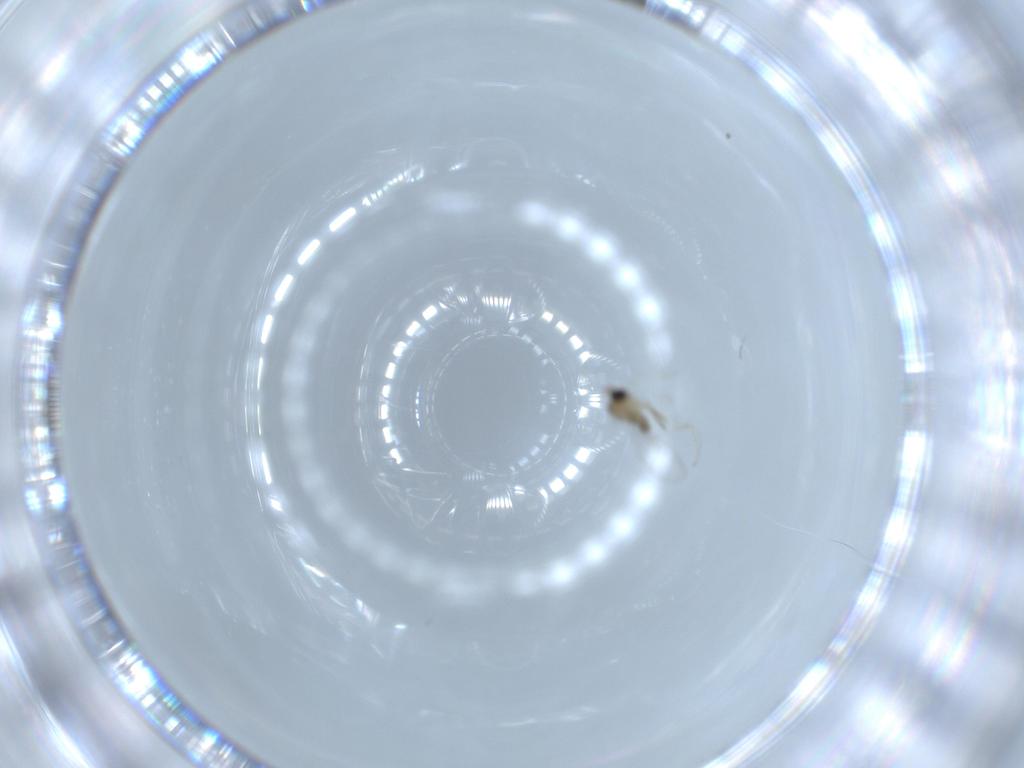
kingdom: Animalia
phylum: Arthropoda
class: Insecta
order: Diptera
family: Cecidomyiidae
